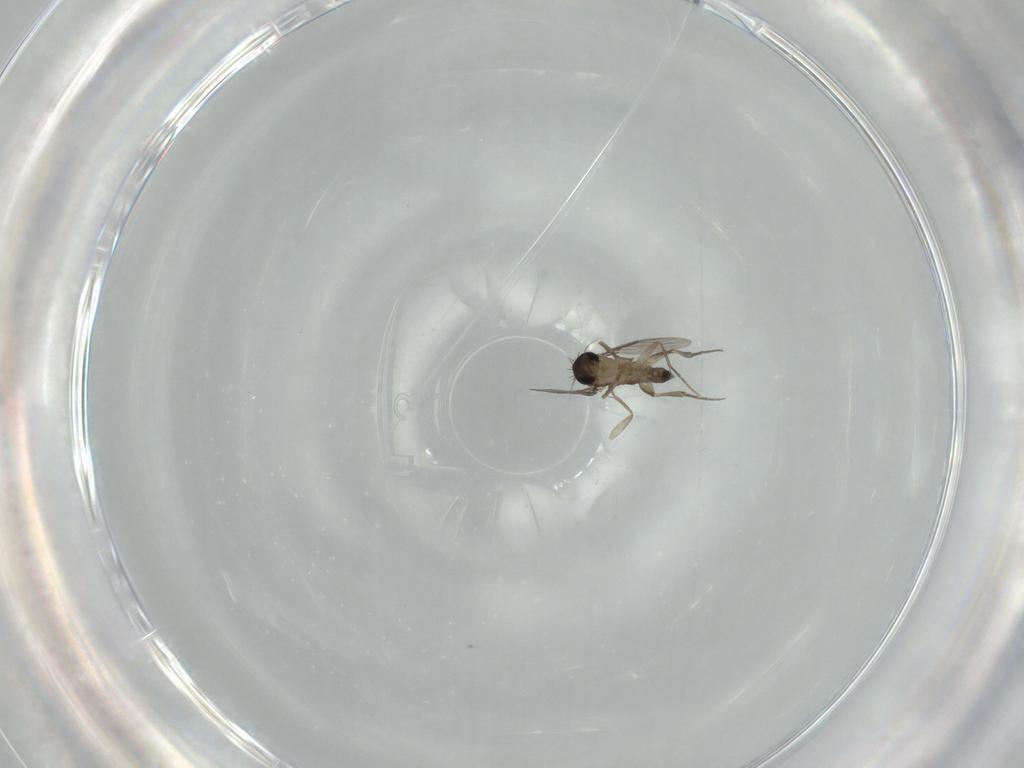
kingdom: Animalia
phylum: Arthropoda
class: Insecta
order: Diptera
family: Phoridae
